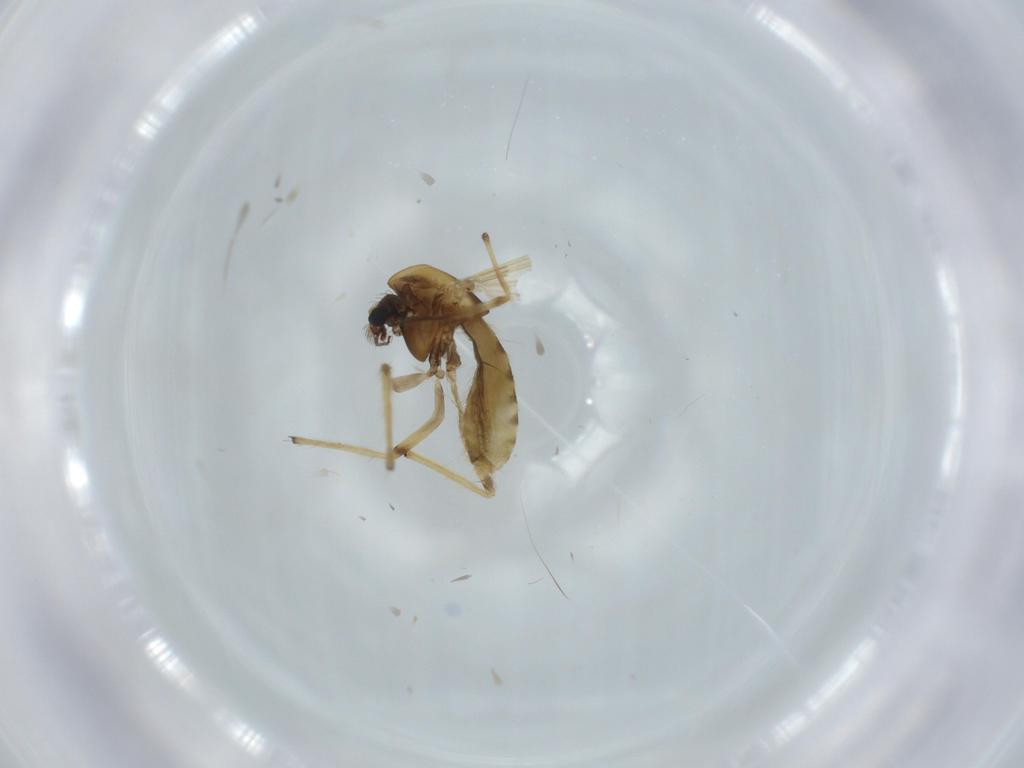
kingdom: Animalia
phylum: Arthropoda
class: Insecta
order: Diptera
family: Chironomidae
